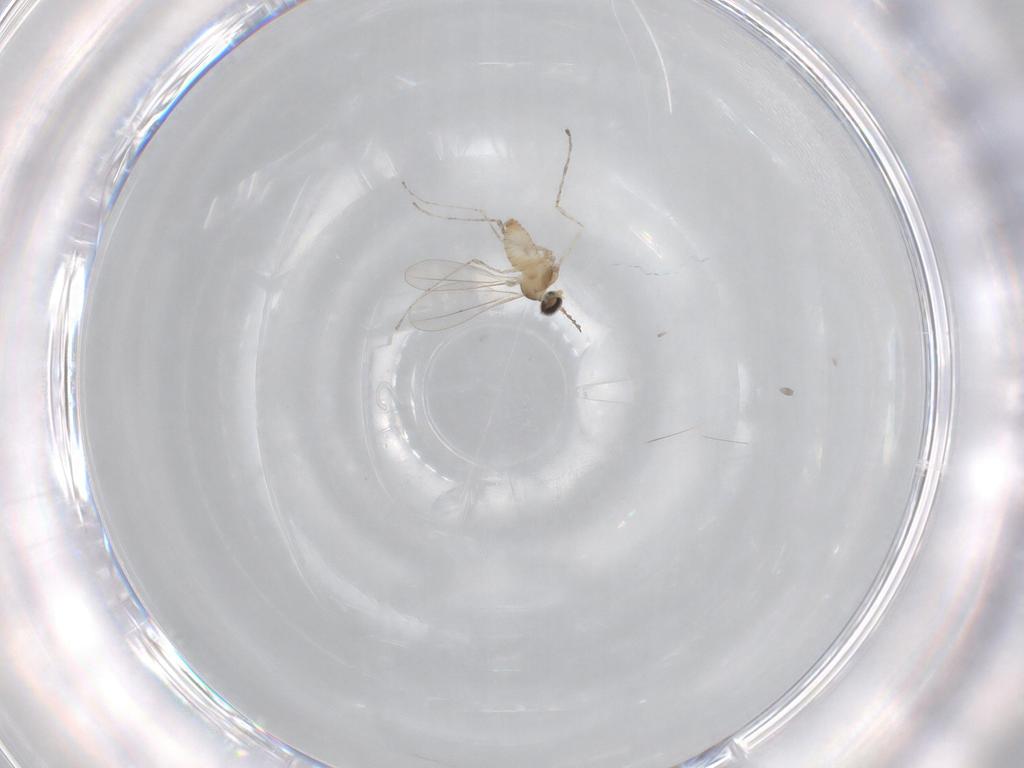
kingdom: Animalia
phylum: Arthropoda
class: Insecta
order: Diptera
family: Cecidomyiidae
